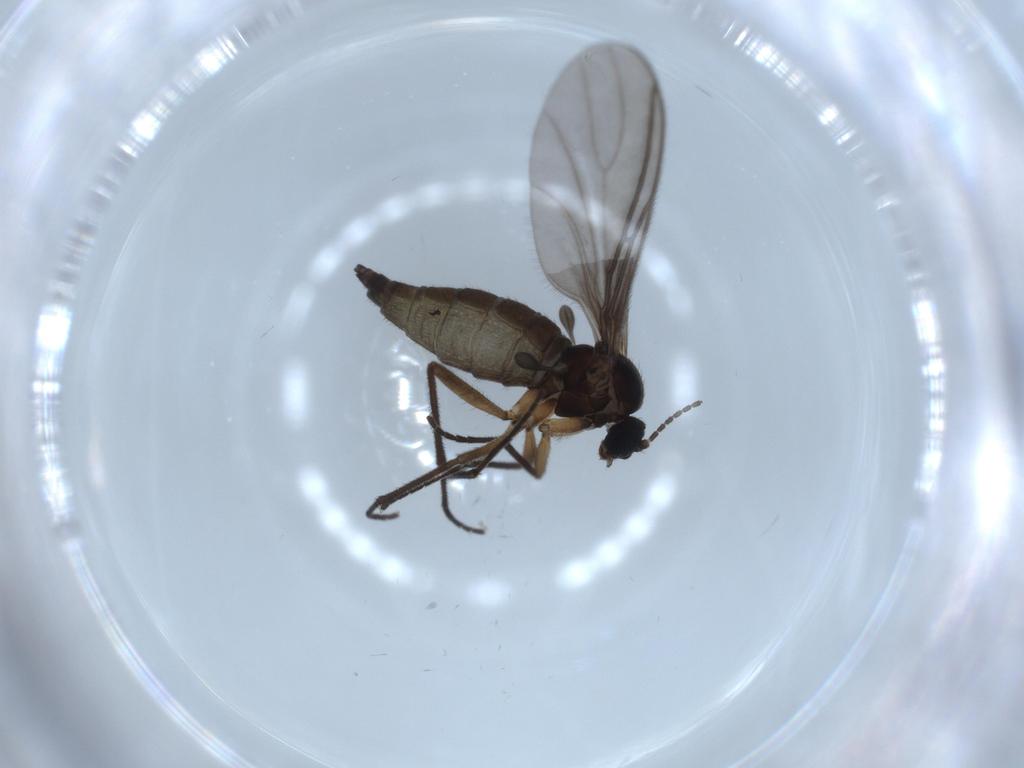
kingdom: Animalia
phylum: Arthropoda
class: Insecta
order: Diptera
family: Sciaridae
